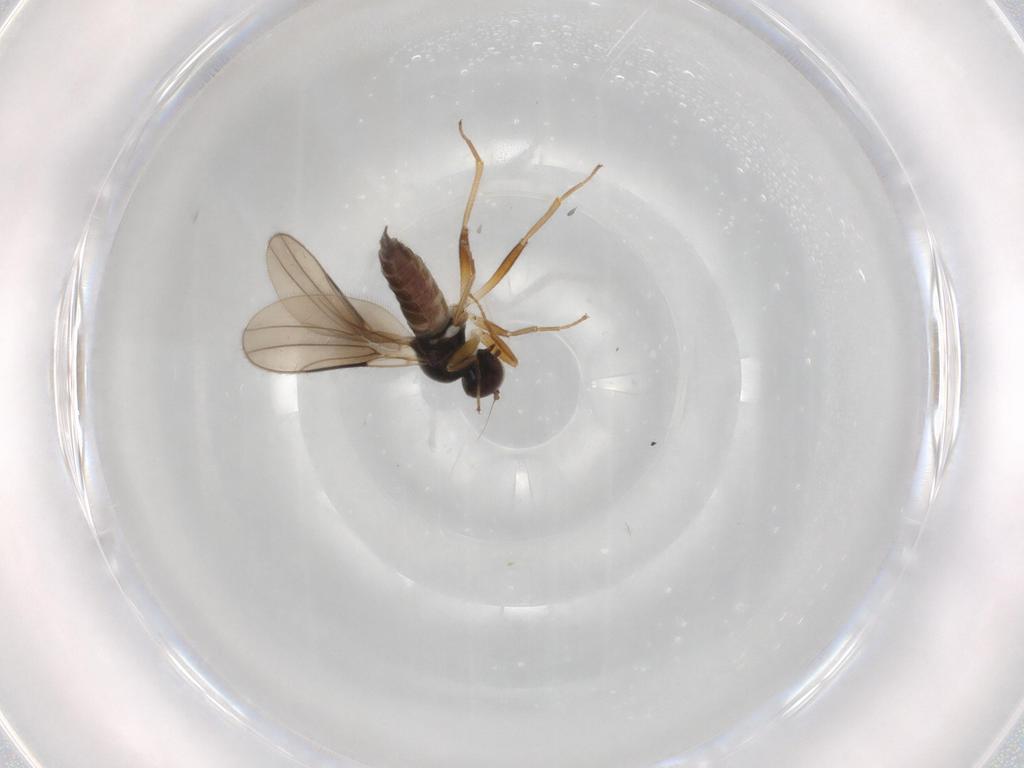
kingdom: Animalia
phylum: Arthropoda
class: Insecta
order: Diptera
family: Hybotidae
